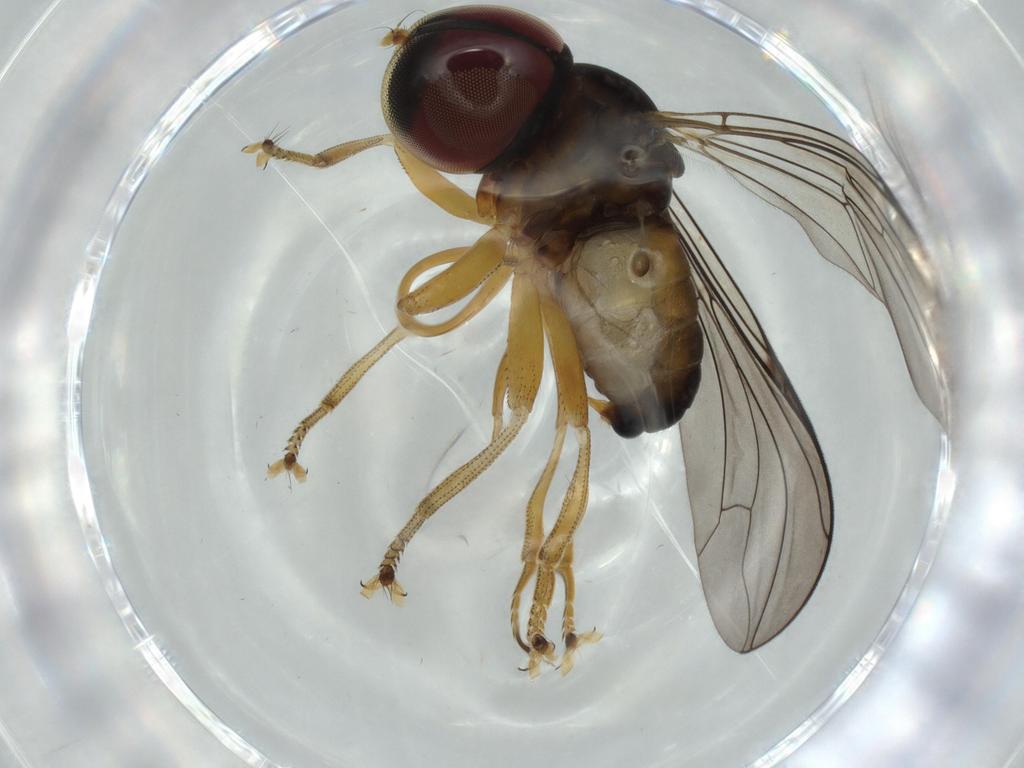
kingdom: Animalia
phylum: Arthropoda
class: Insecta
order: Diptera
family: Pipunculidae
